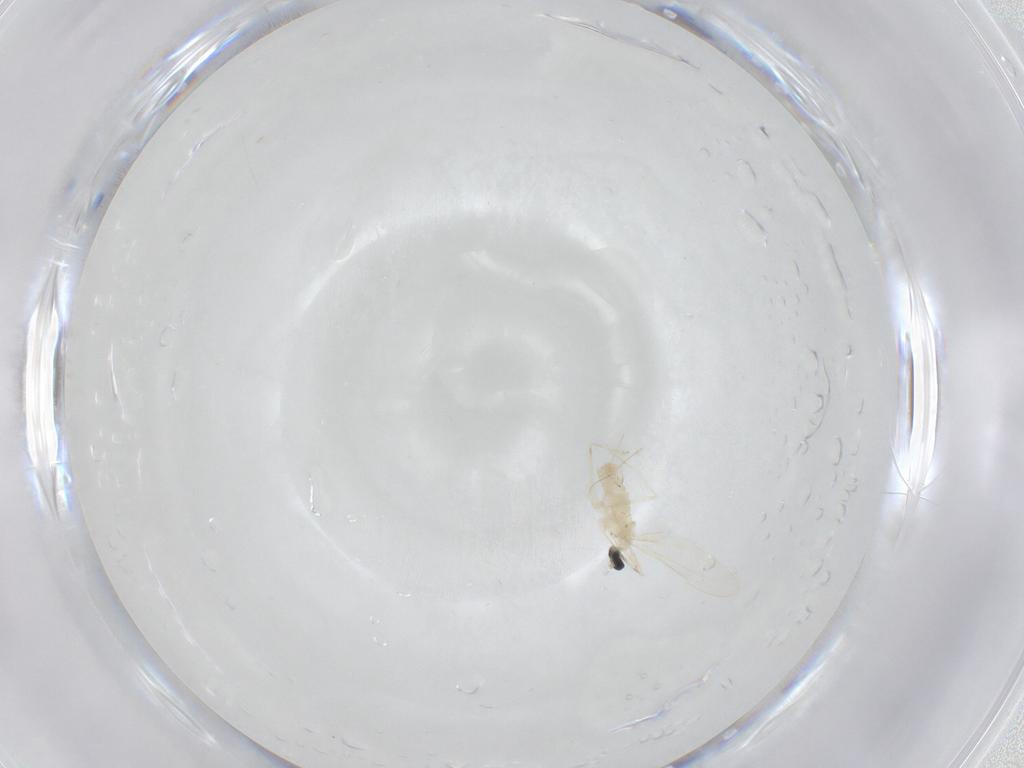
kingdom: Animalia
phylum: Arthropoda
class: Insecta
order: Diptera
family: Cecidomyiidae
